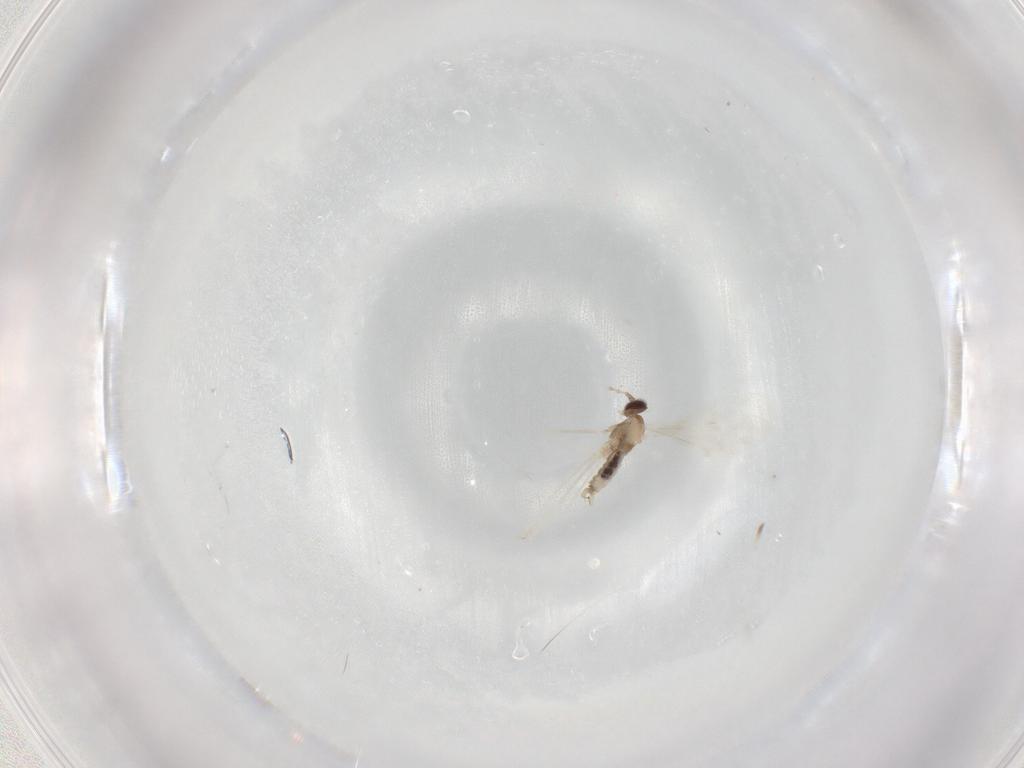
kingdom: Animalia
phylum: Arthropoda
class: Insecta
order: Diptera
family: Cecidomyiidae
